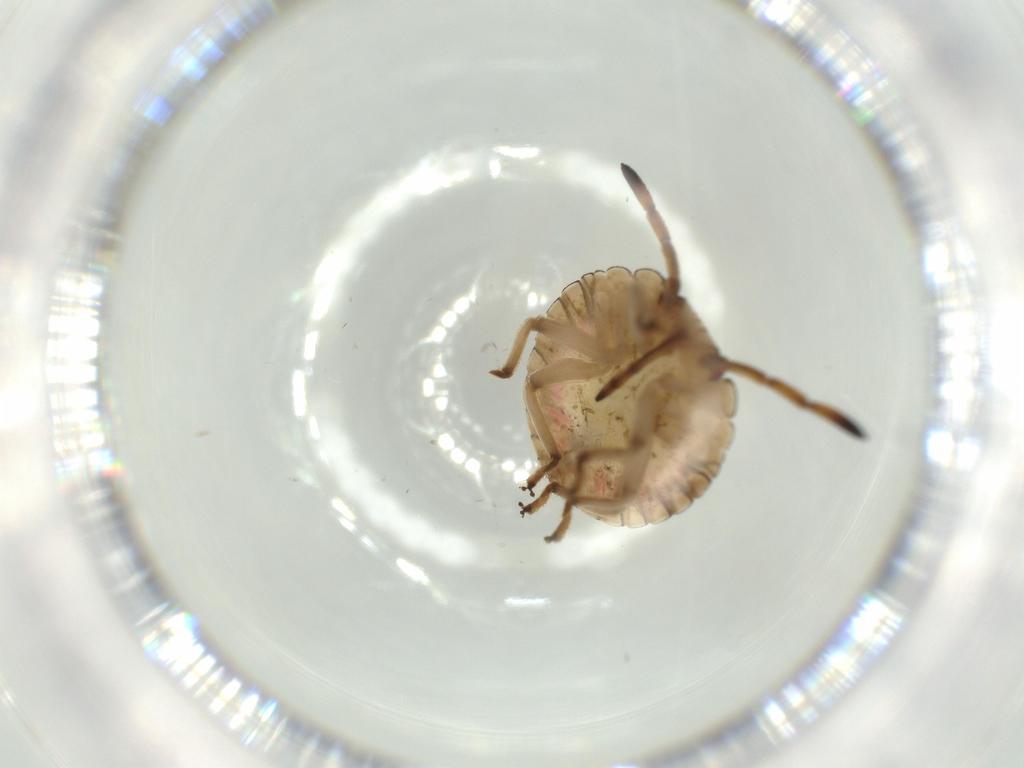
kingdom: Animalia
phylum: Arthropoda
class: Insecta
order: Hemiptera
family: Pentatomidae
